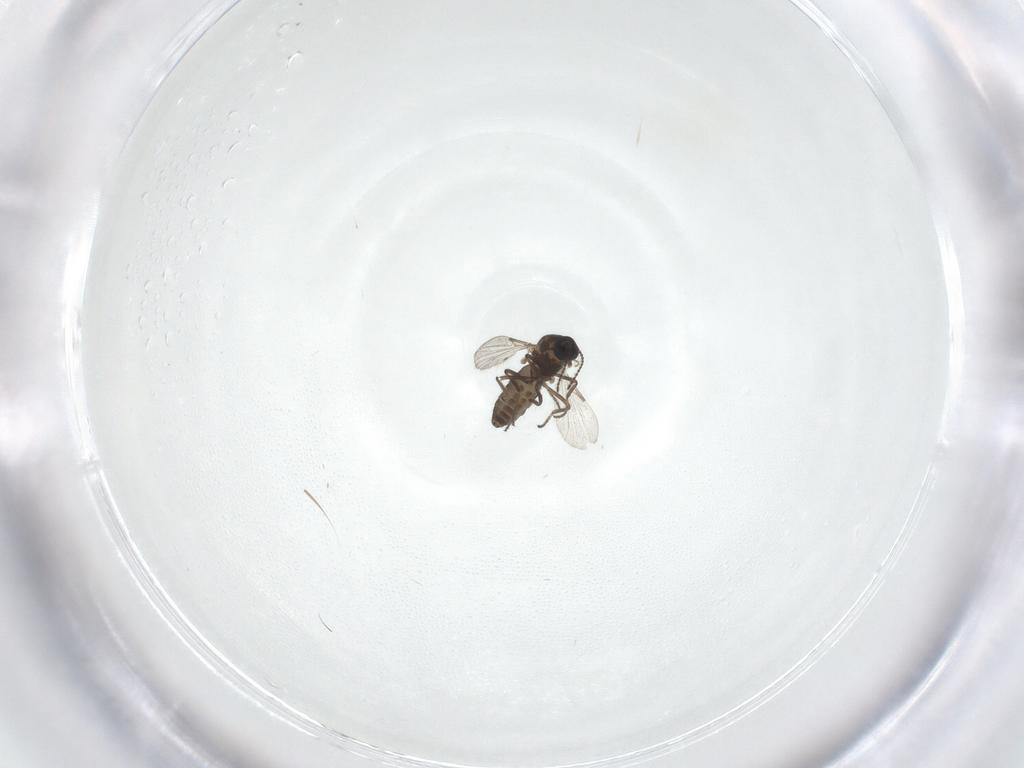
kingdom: Animalia
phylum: Arthropoda
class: Insecta
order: Diptera
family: Ceratopogonidae
